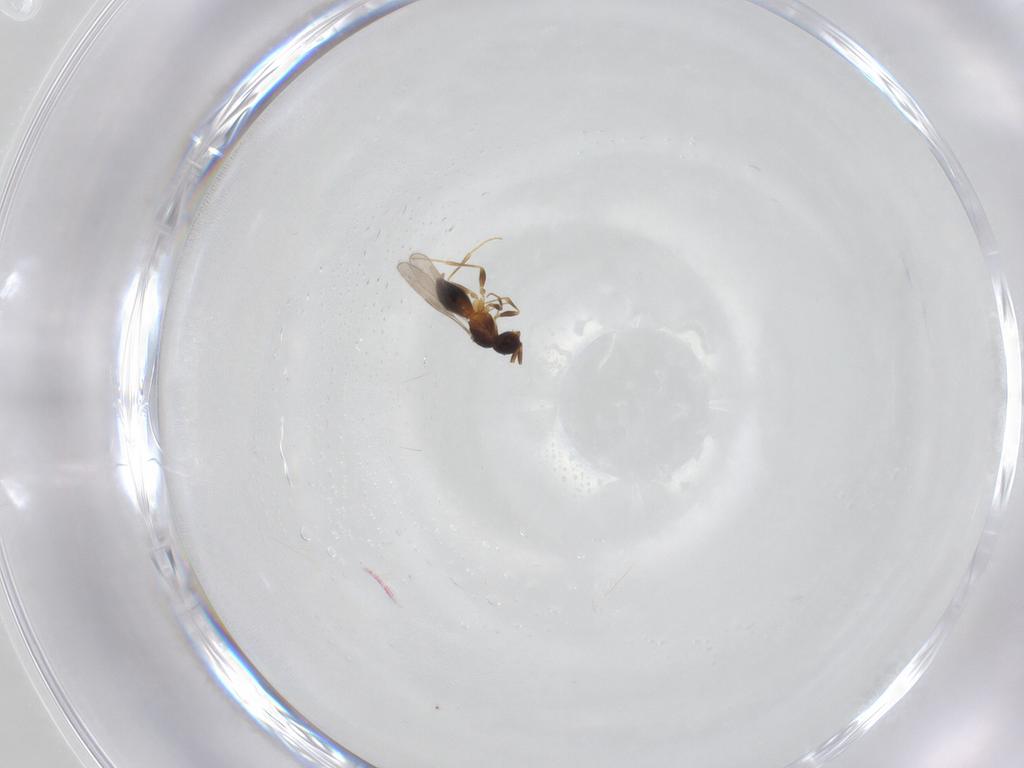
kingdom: Animalia
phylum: Arthropoda
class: Insecta
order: Hymenoptera
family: Formicidae
